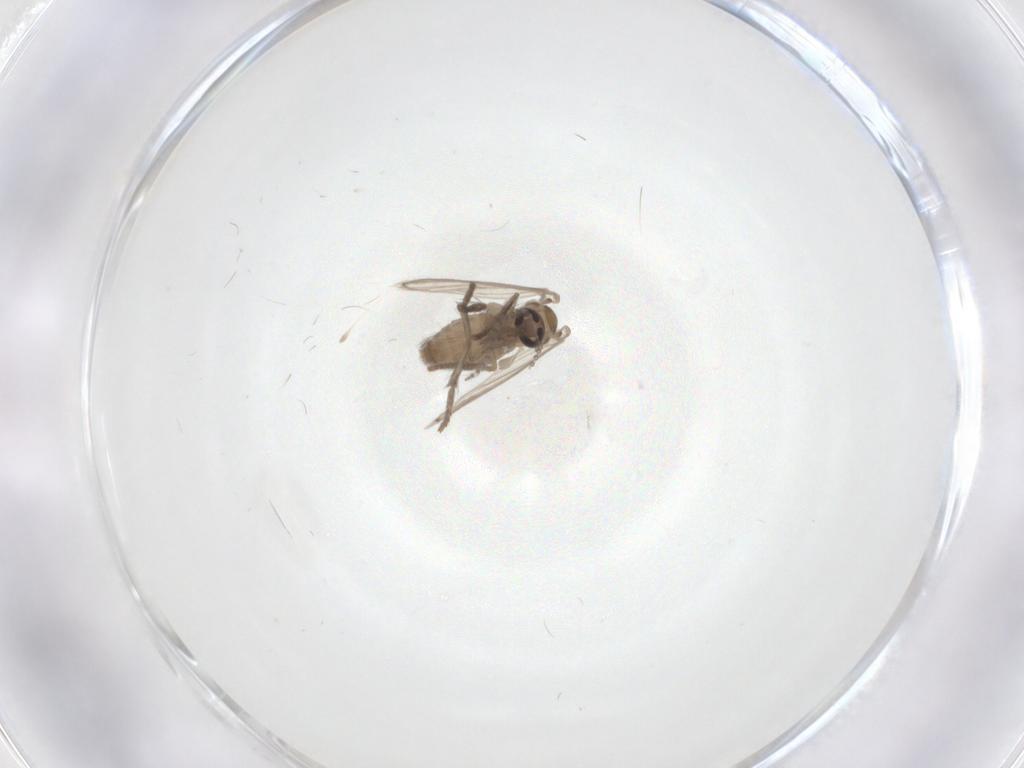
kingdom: Animalia
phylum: Arthropoda
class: Insecta
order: Diptera
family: Psychodidae
